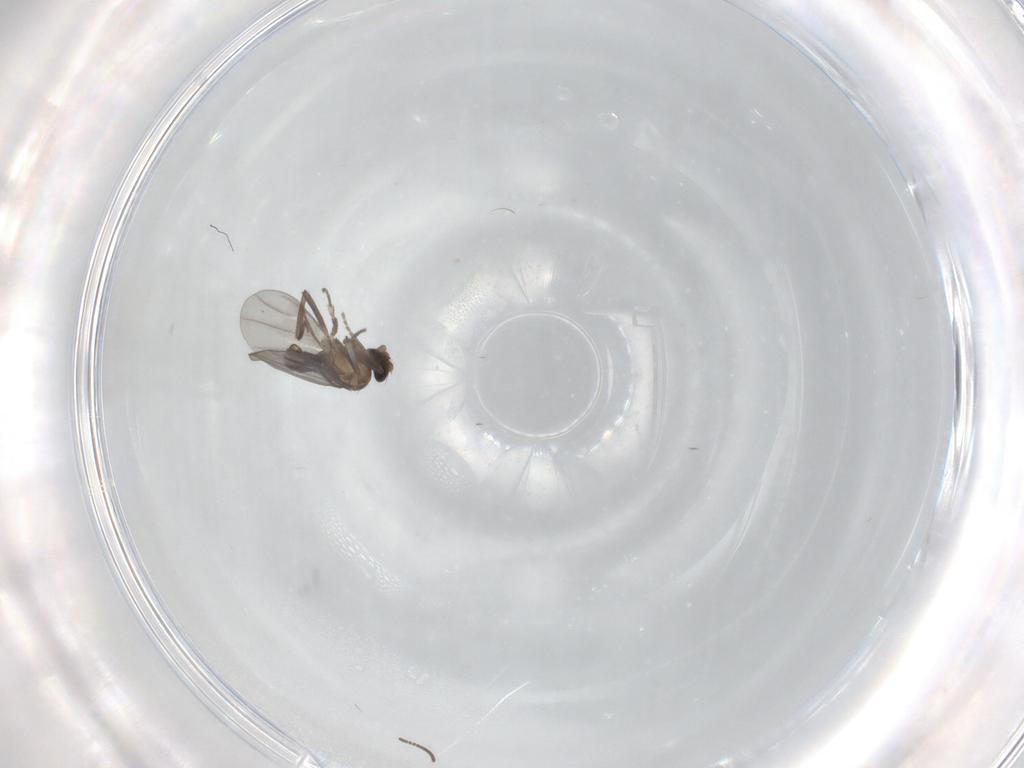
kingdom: Animalia
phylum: Arthropoda
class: Insecta
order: Diptera
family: Phoridae
